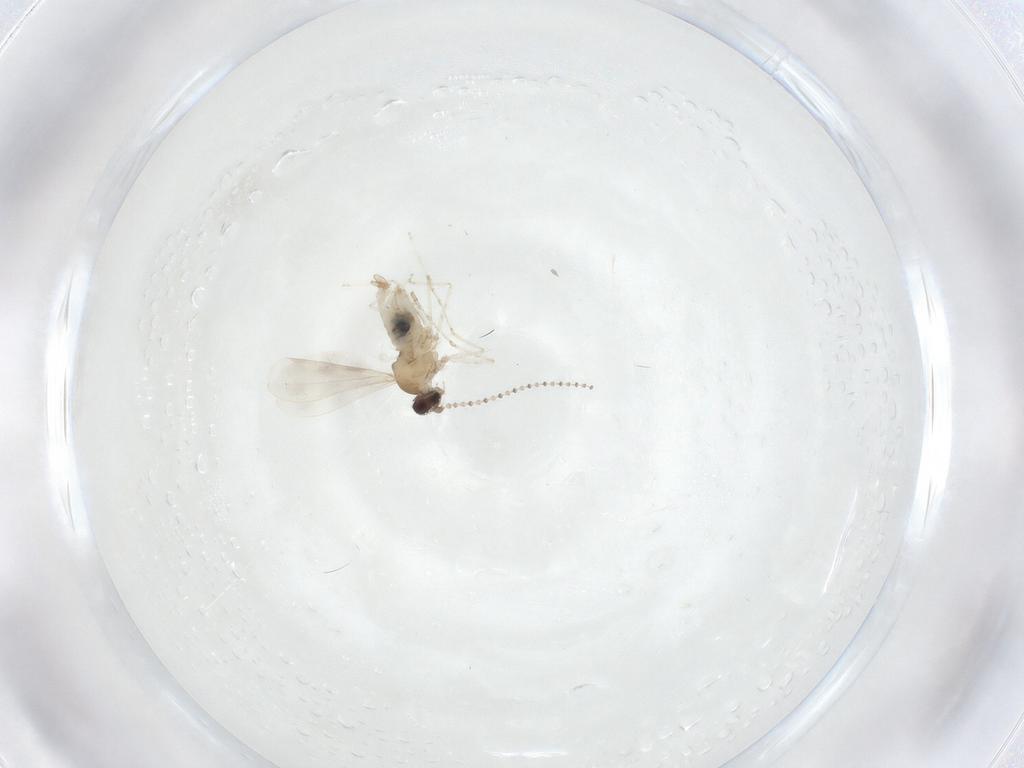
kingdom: Animalia
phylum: Arthropoda
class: Insecta
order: Diptera
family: Cecidomyiidae
